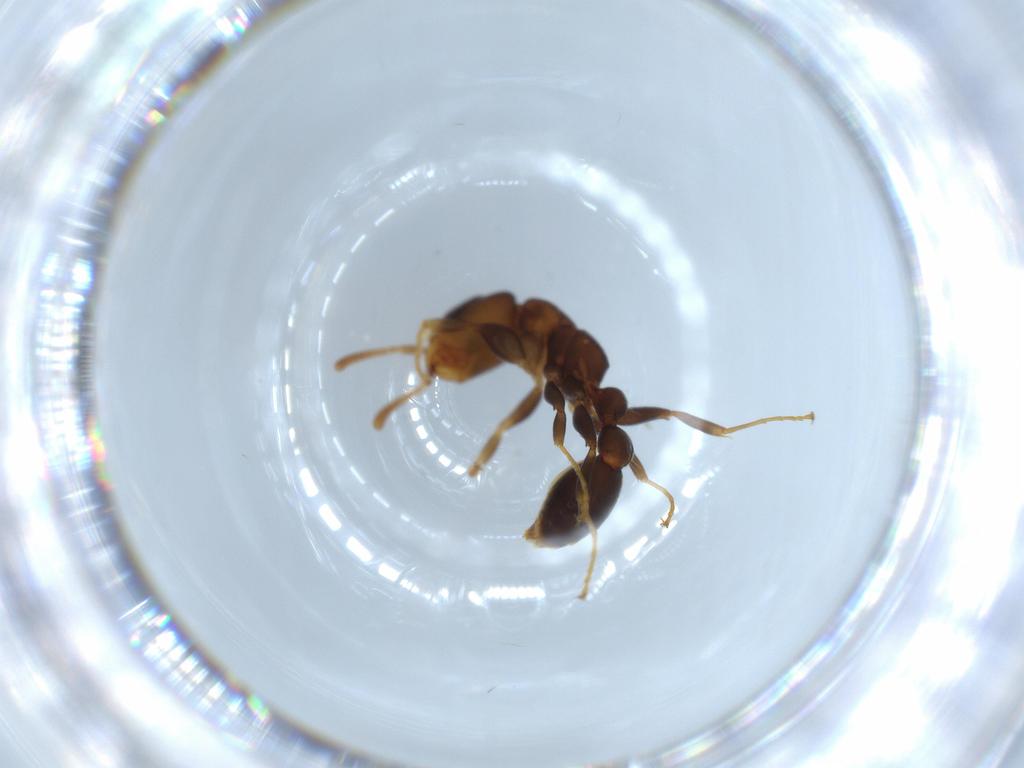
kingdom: Animalia
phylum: Arthropoda
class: Insecta
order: Hymenoptera
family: Formicidae
